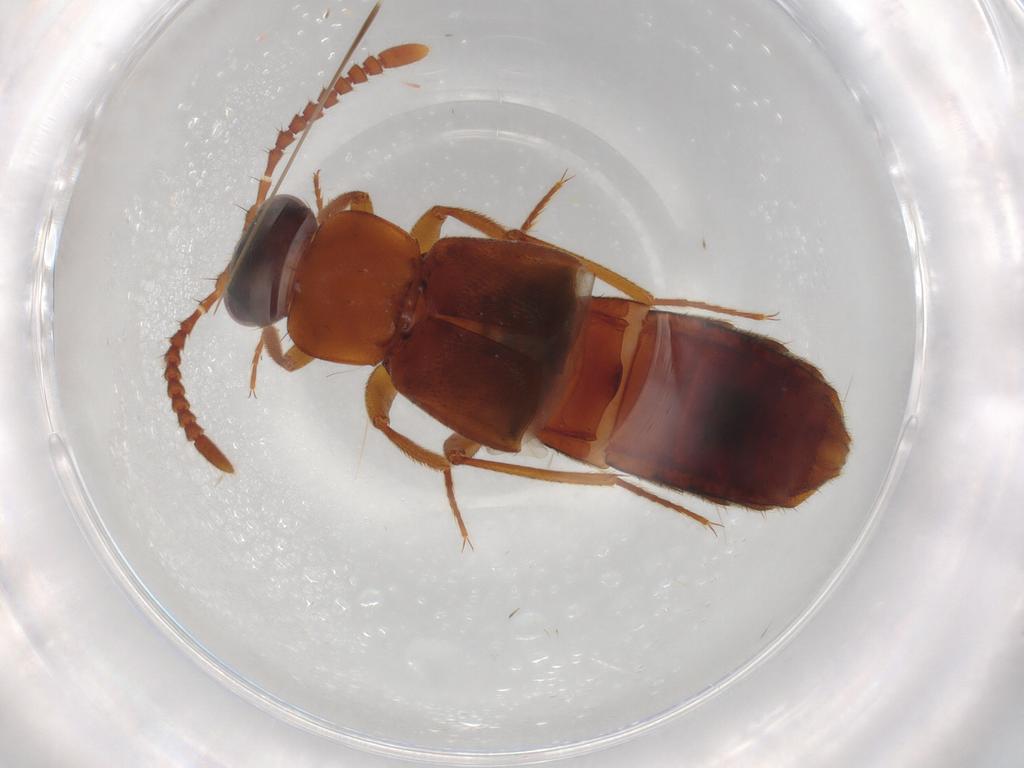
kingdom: Animalia
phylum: Arthropoda
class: Insecta
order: Coleoptera
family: Staphylinidae
